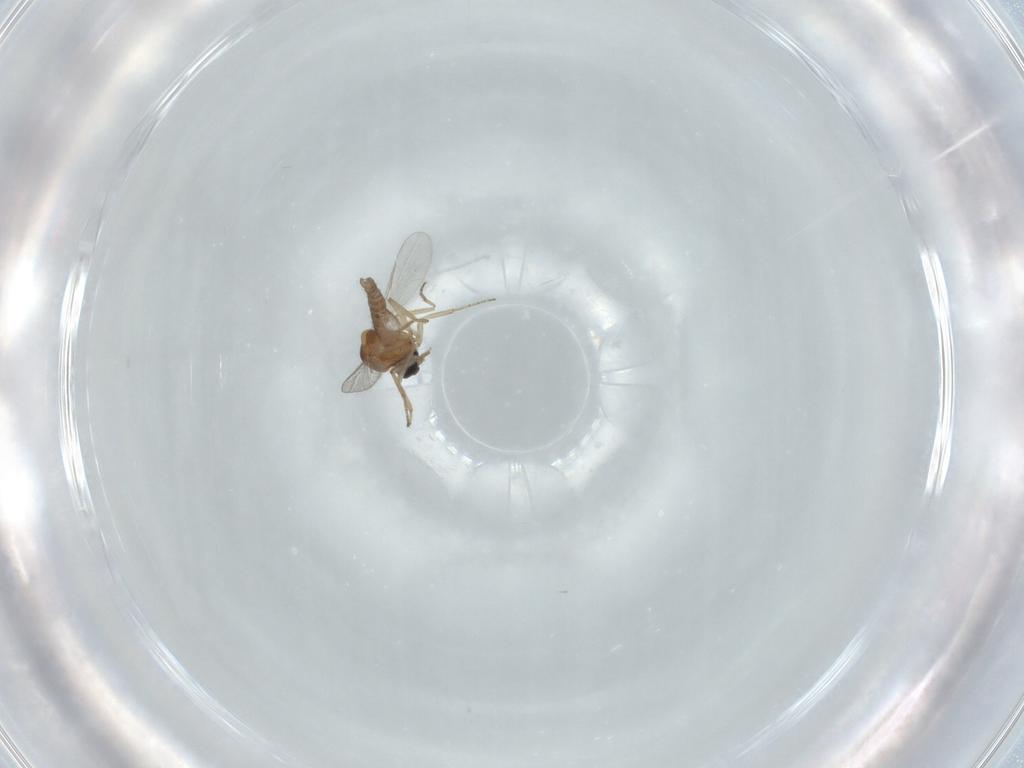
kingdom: Animalia
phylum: Arthropoda
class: Insecta
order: Diptera
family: Ceratopogonidae
